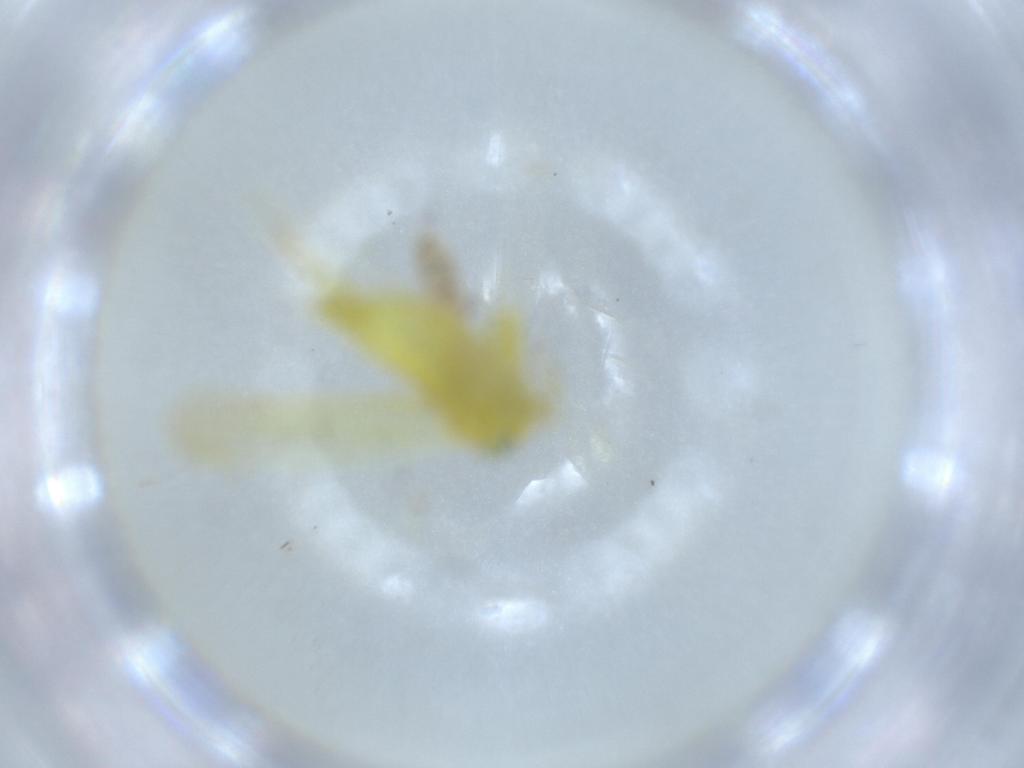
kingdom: Animalia
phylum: Arthropoda
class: Collembola
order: Entomobryomorpha
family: Entomobryidae
